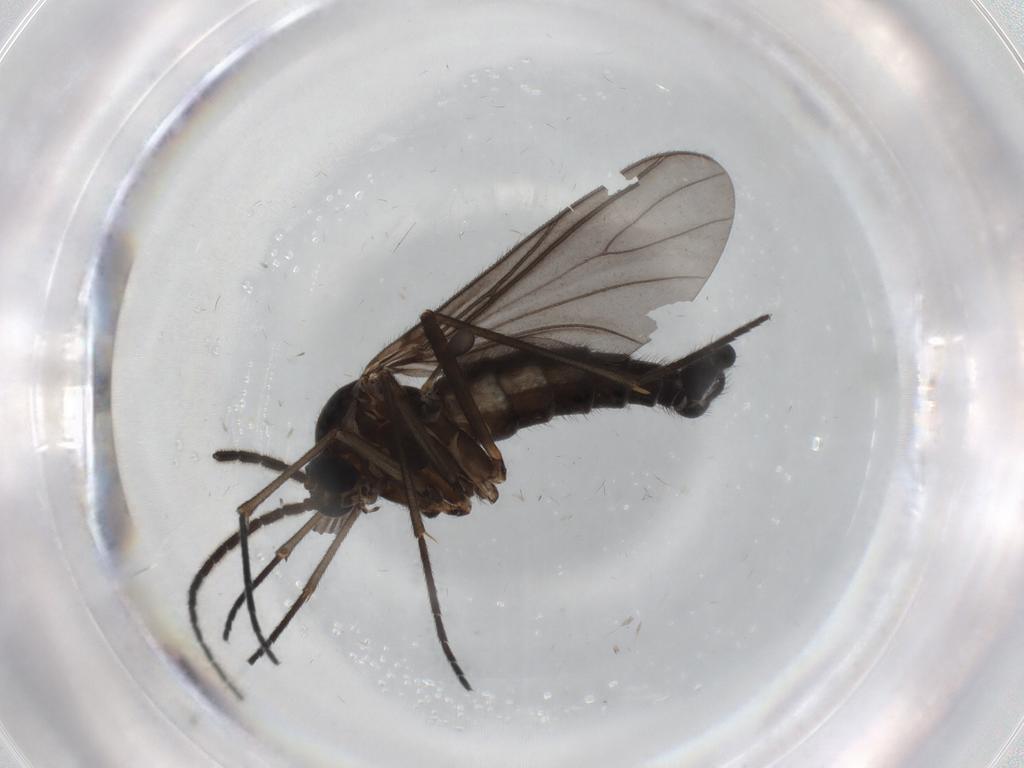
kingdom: Animalia
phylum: Arthropoda
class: Insecta
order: Diptera
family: Sciaridae
